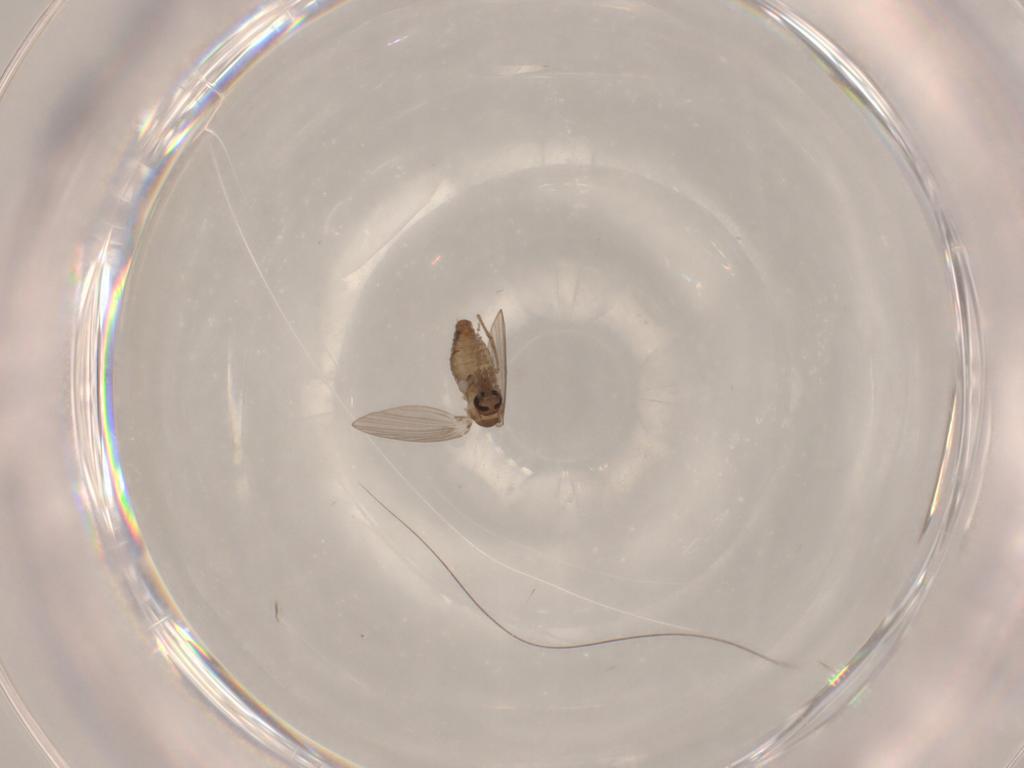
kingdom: Animalia
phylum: Arthropoda
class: Insecta
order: Diptera
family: Psychodidae
